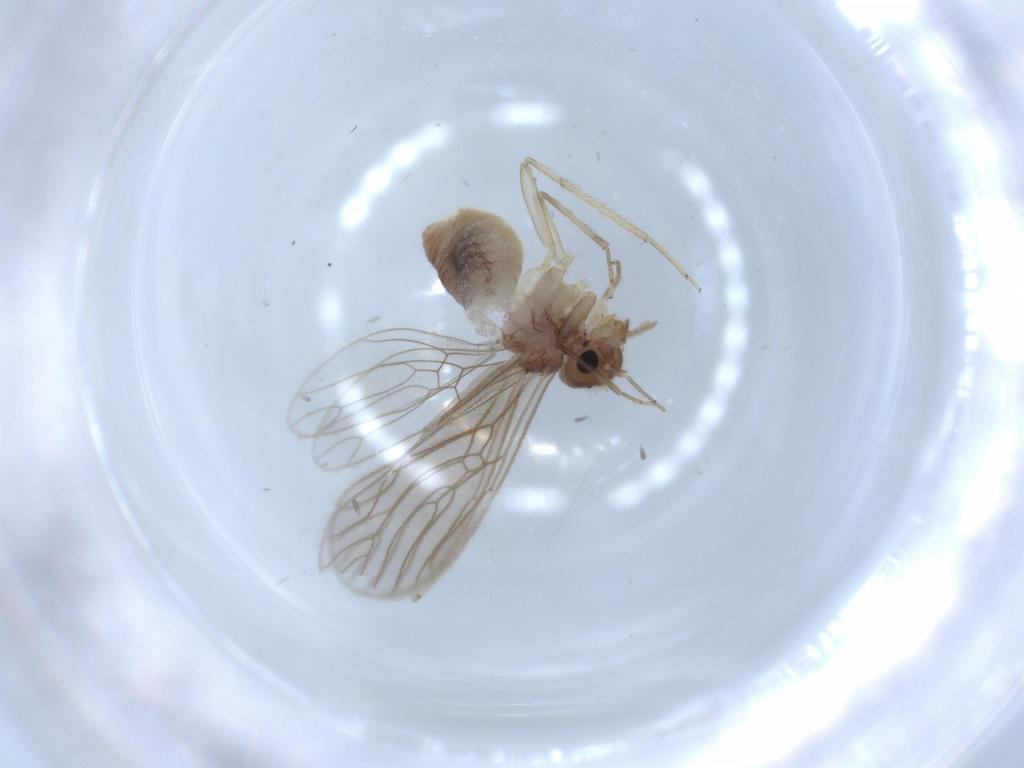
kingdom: Animalia
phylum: Arthropoda
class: Insecta
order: Psocodea
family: Cladiopsocidae
